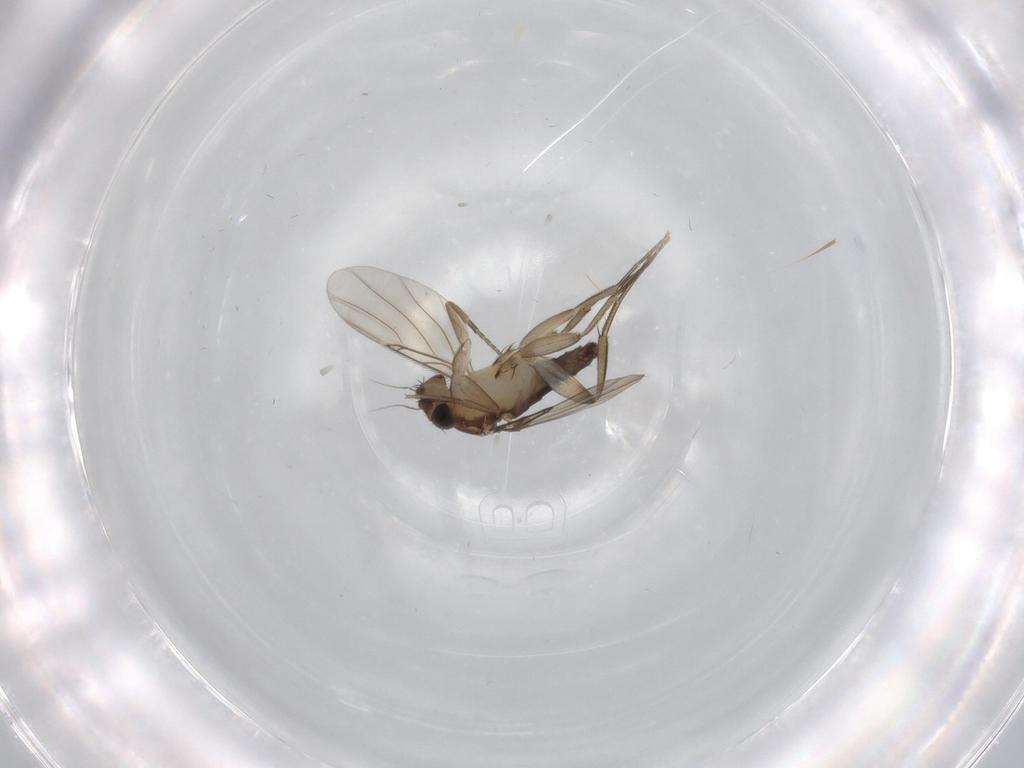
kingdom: Animalia
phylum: Arthropoda
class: Insecta
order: Diptera
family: Phoridae
